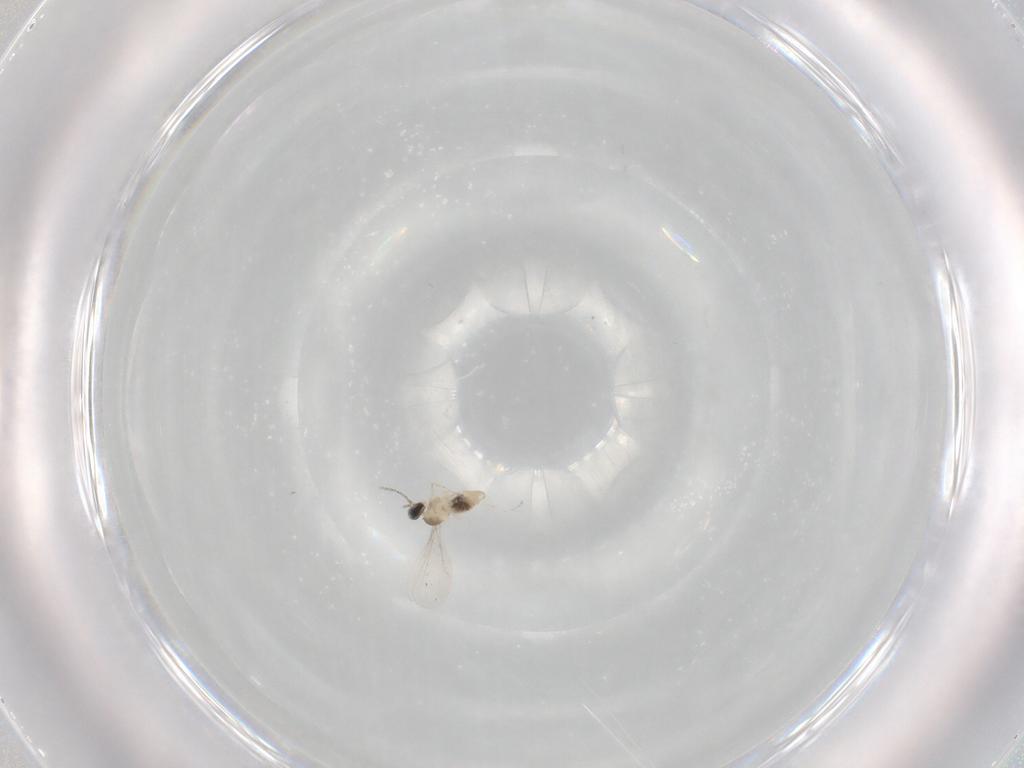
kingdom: Animalia
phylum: Arthropoda
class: Insecta
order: Diptera
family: Cecidomyiidae
